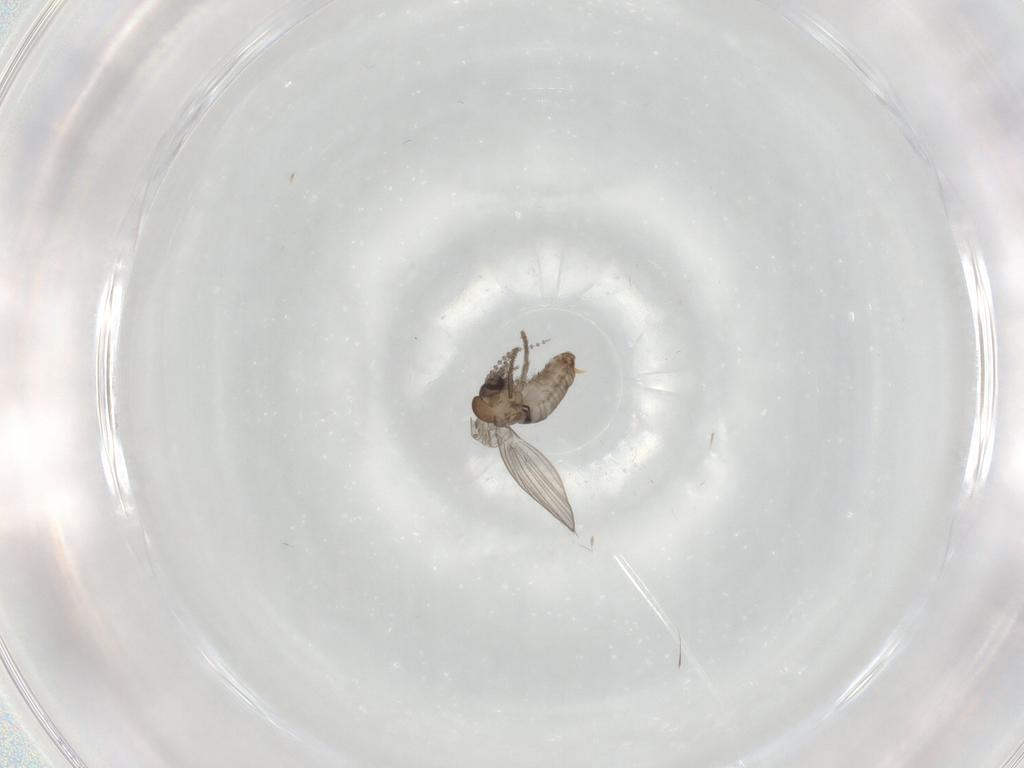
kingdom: Animalia
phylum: Arthropoda
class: Insecta
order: Diptera
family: Psychodidae
